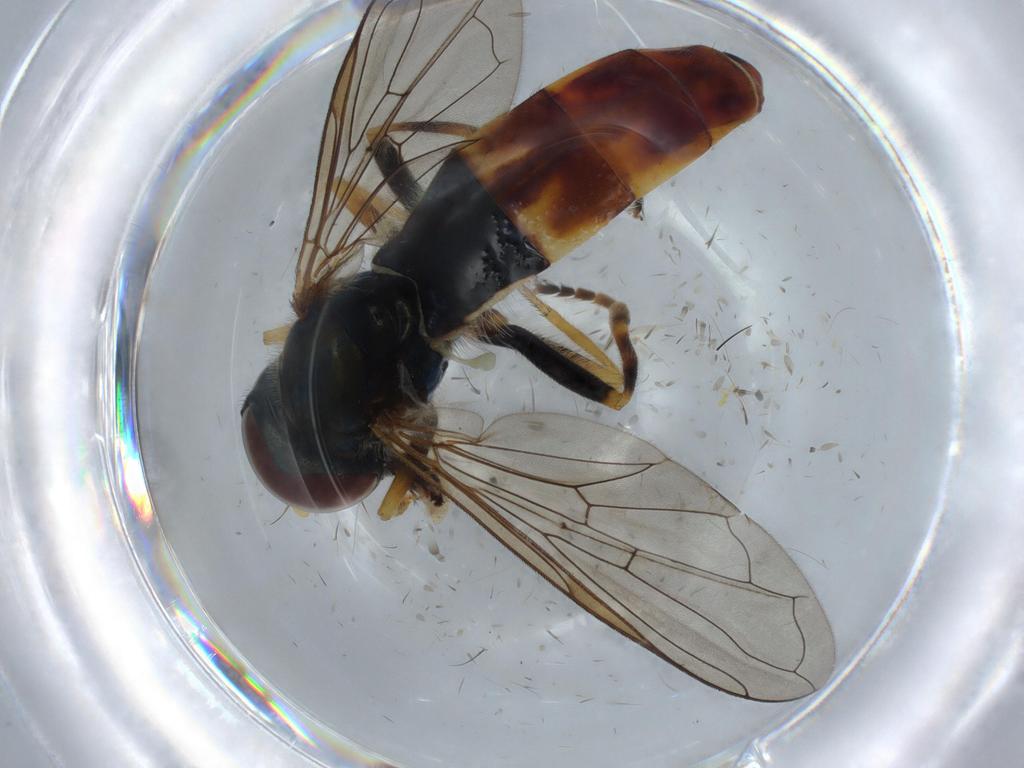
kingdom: Animalia
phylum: Arthropoda
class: Insecta
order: Diptera
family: Syrphidae
